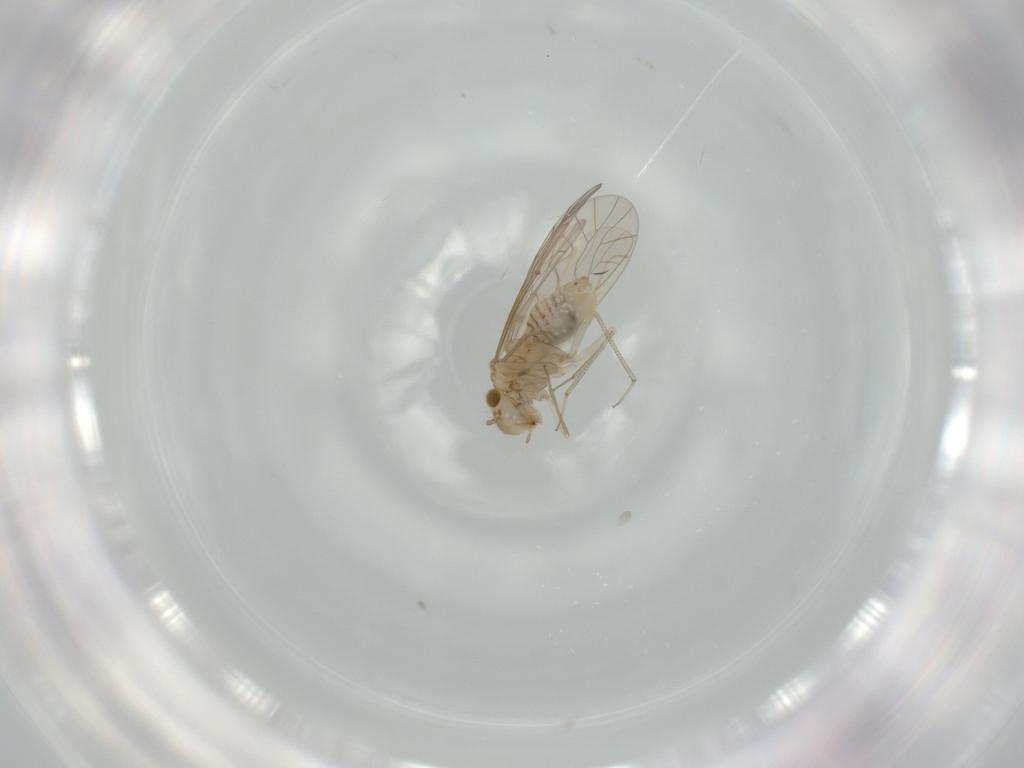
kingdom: Animalia
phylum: Arthropoda
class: Insecta
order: Psocodea
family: Lachesillidae
